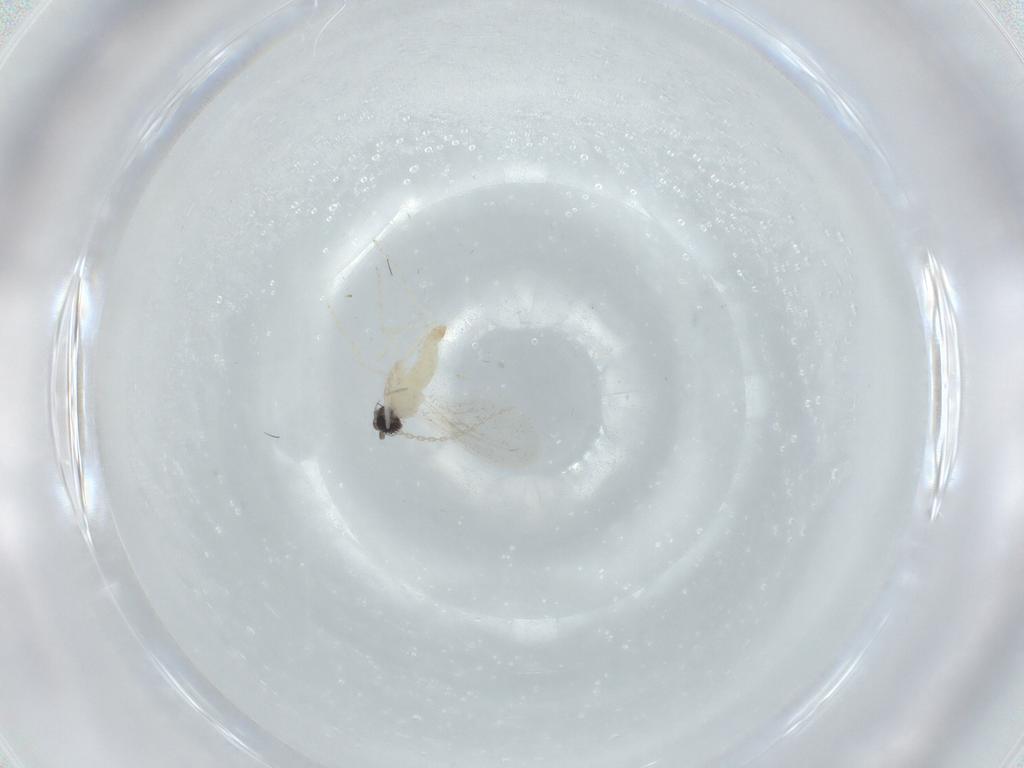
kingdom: Animalia
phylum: Arthropoda
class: Insecta
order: Diptera
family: Cecidomyiidae
